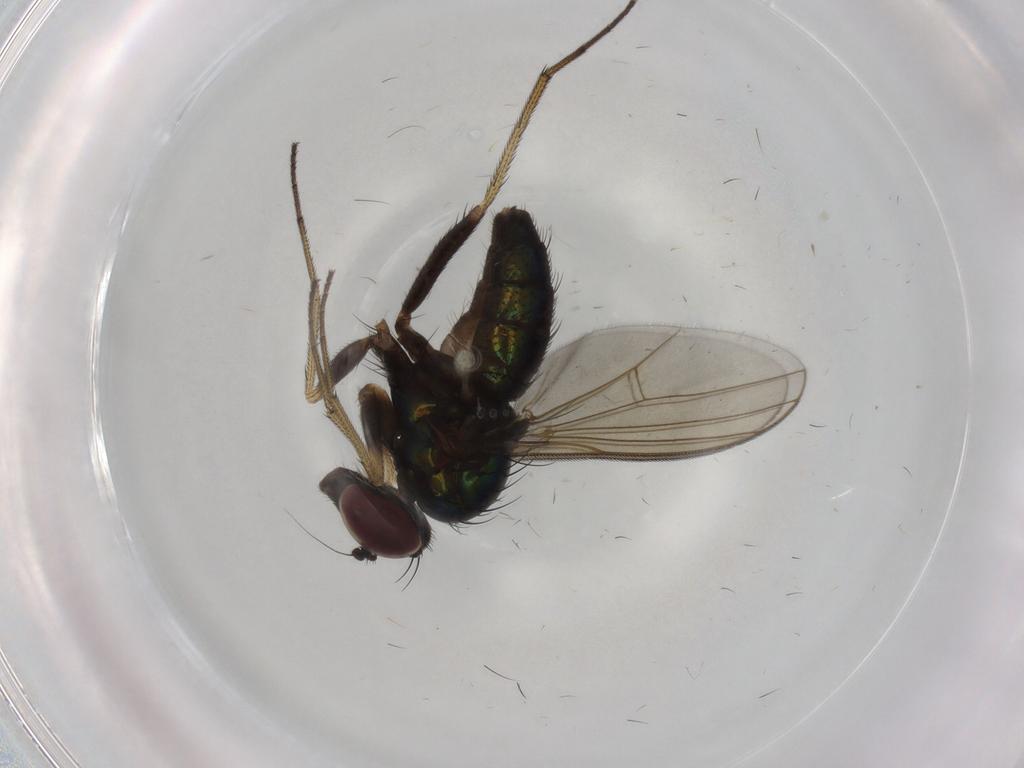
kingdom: Animalia
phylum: Arthropoda
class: Insecta
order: Diptera
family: Dolichopodidae
